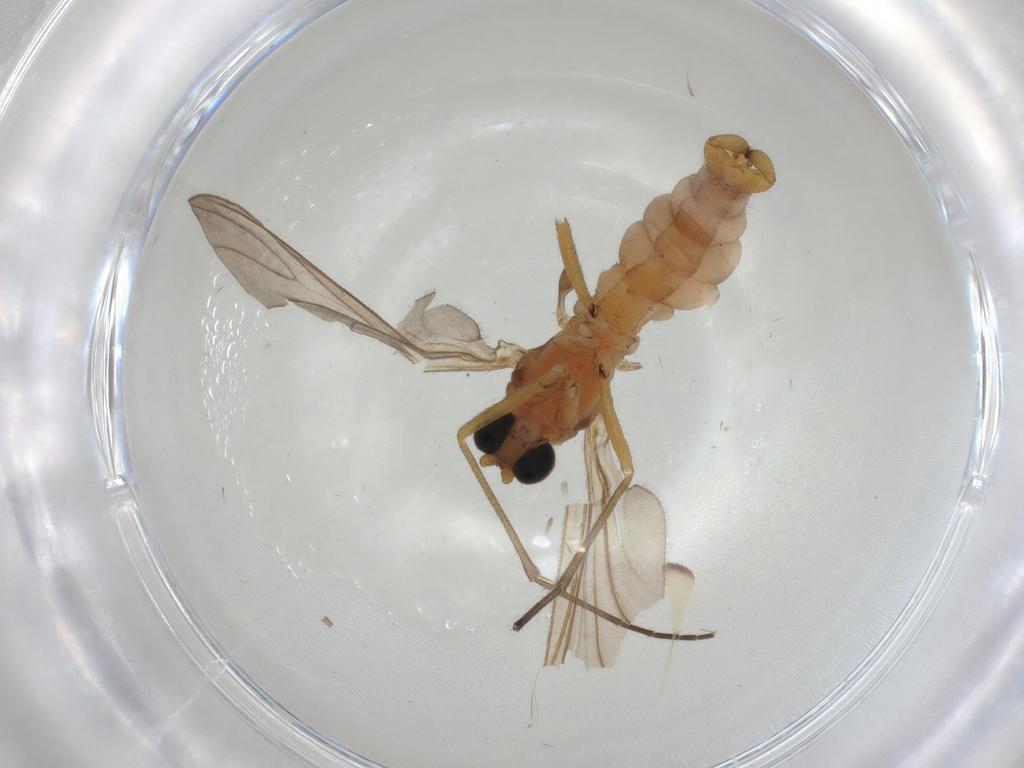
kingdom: Animalia
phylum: Arthropoda
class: Insecta
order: Diptera
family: Sciaridae
